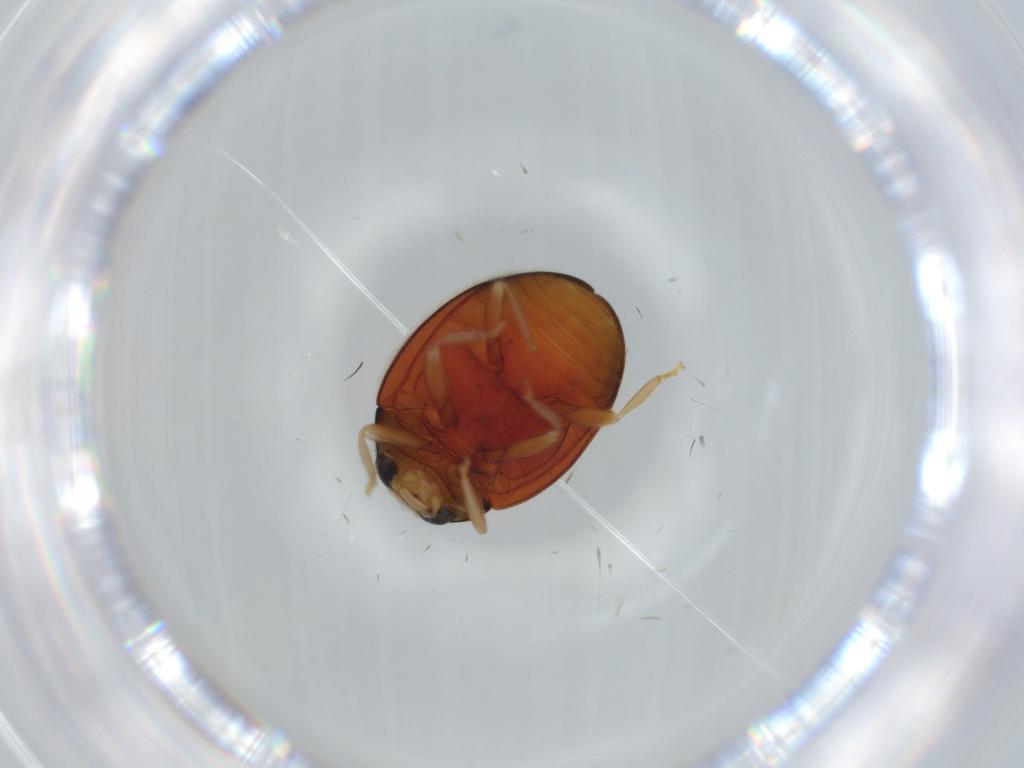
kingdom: Animalia
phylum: Arthropoda
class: Insecta
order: Coleoptera
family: Coccinellidae
